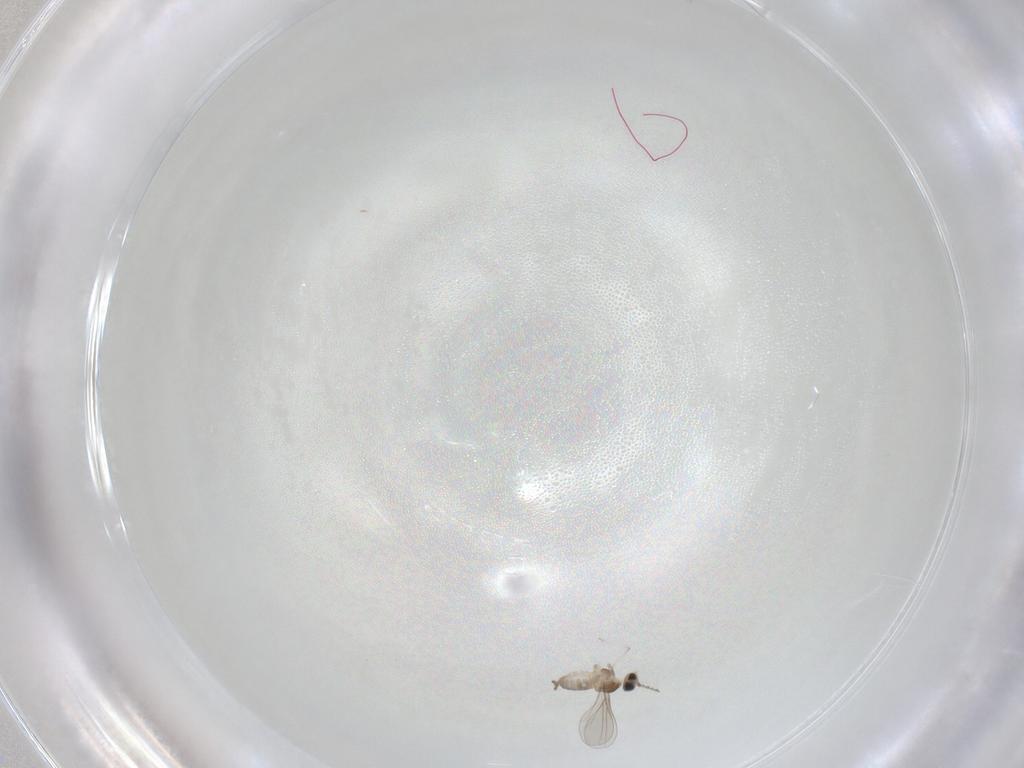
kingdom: Animalia
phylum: Arthropoda
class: Insecta
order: Diptera
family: Cecidomyiidae
